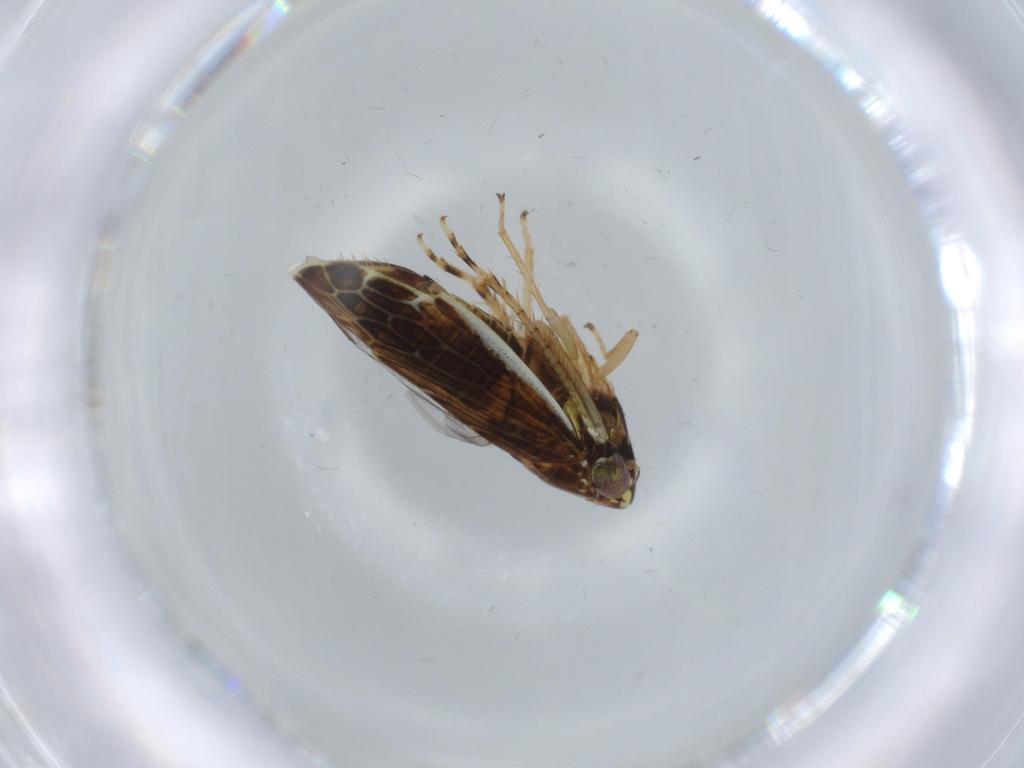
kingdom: Animalia
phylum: Arthropoda
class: Insecta
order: Hemiptera
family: Cicadellidae
